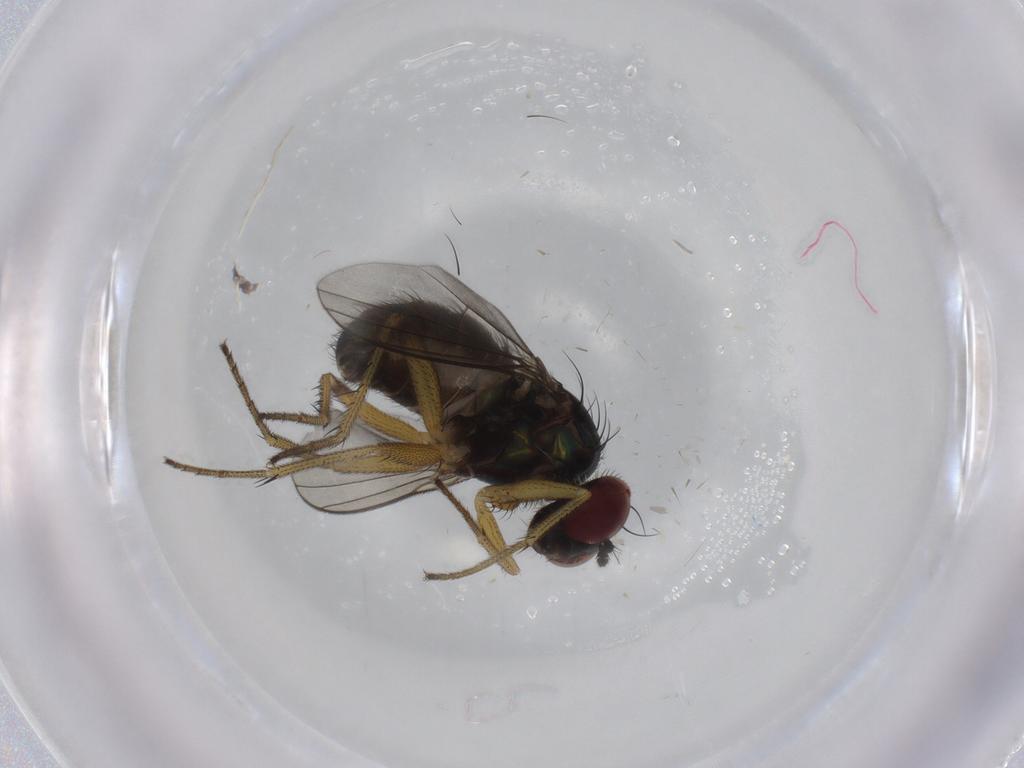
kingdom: Animalia
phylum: Arthropoda
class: Insecta
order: Diptera
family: Dolichopodidae
